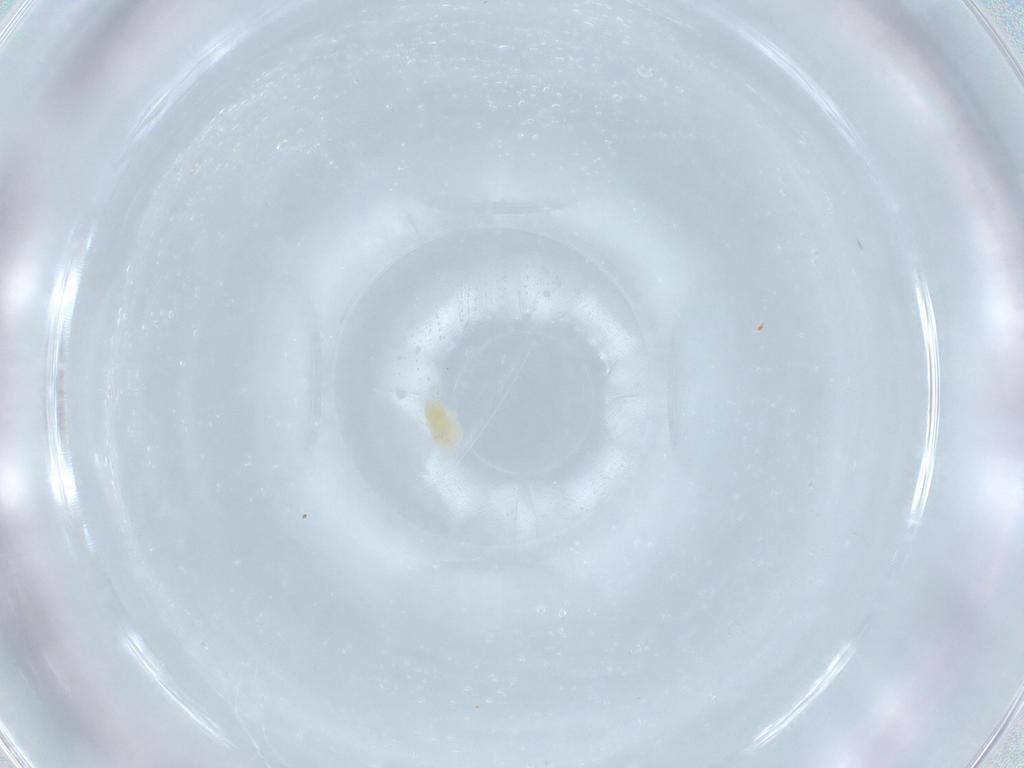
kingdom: Animalia
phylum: Arthropoda
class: Arachnida
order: Trombidiformes
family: Eupodidae
